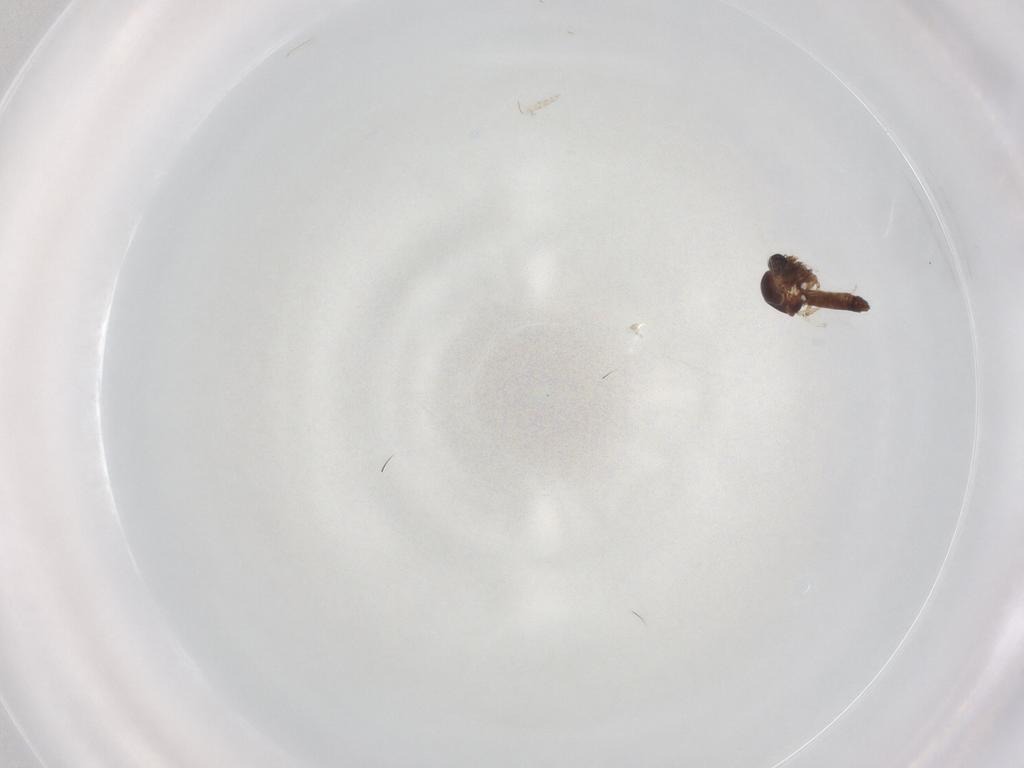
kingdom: Animalia
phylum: Arthropoda
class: Insecta
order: Diptera
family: Ceratopogonidae
